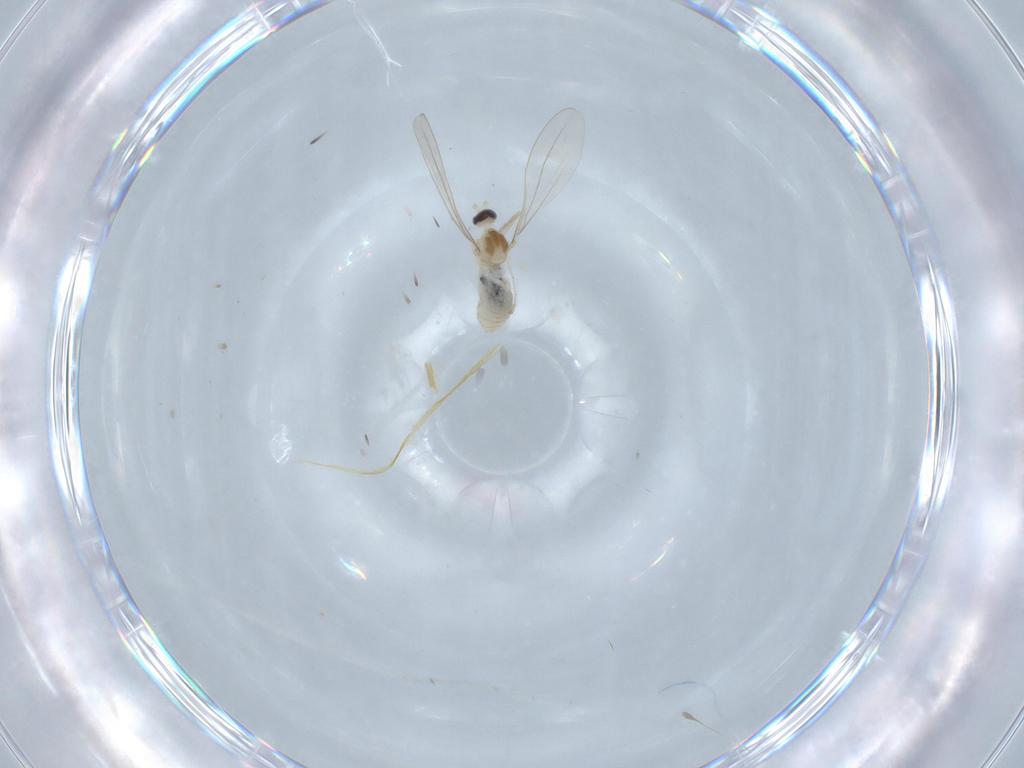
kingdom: Animalia
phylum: Arthropoda
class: Insecta
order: Diptera
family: Cecidomyiidae
